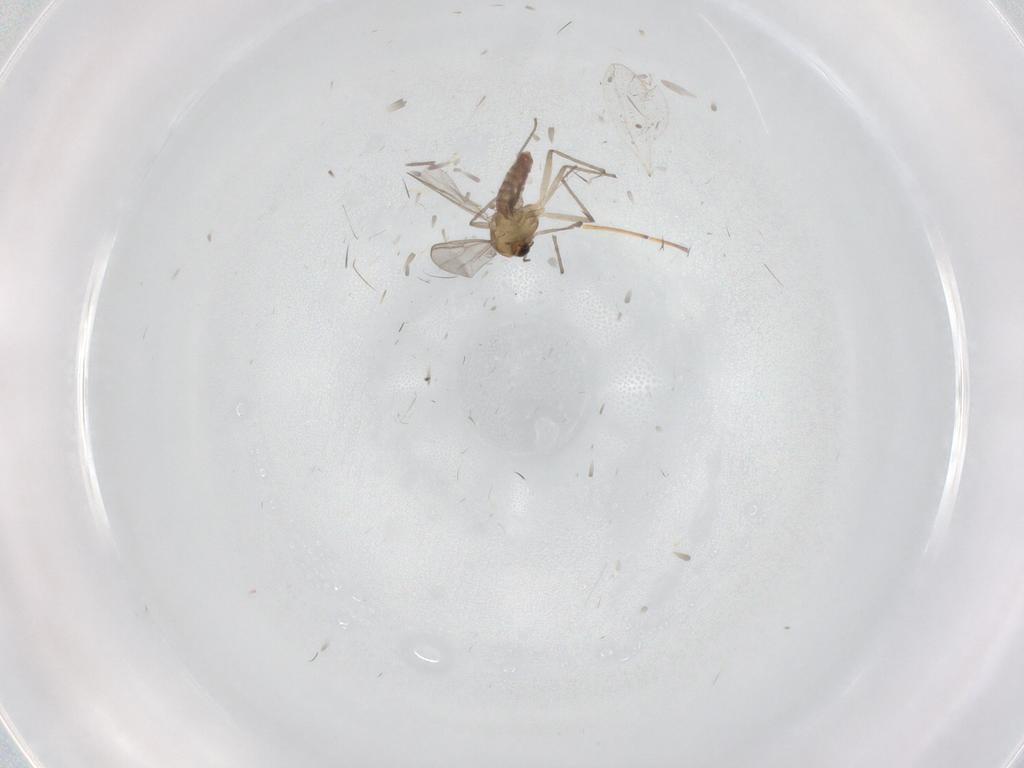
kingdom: Animalia
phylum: Arthropoda
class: Insecta
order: Diptera
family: Chironomidae
